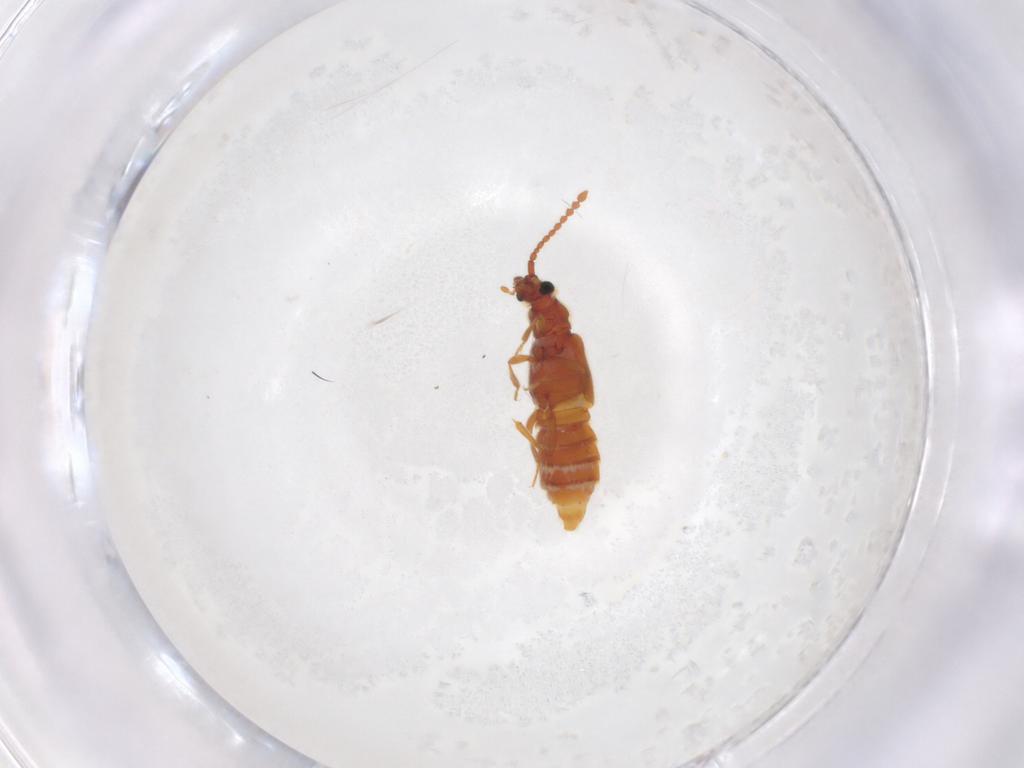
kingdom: Animalia
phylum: Arthropoda
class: Insecta
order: Coleoptera
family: Staphylinidae
